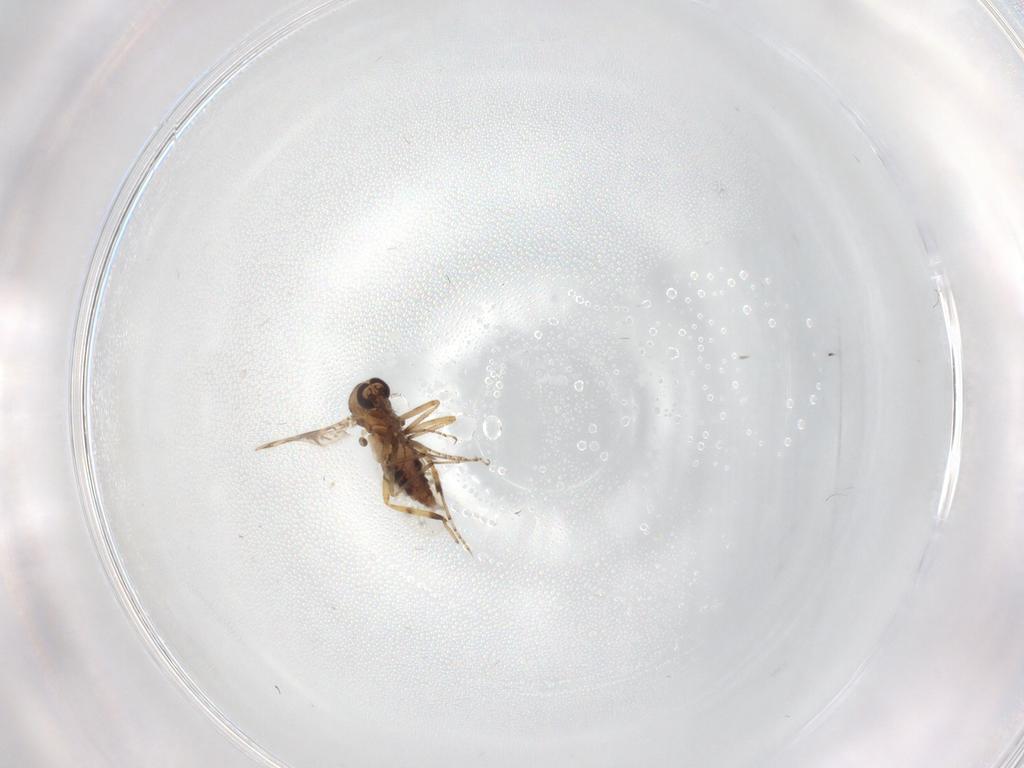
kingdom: Animalia
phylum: Arthropoda
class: Insecta
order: Diptera
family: Ceratopogonidae
